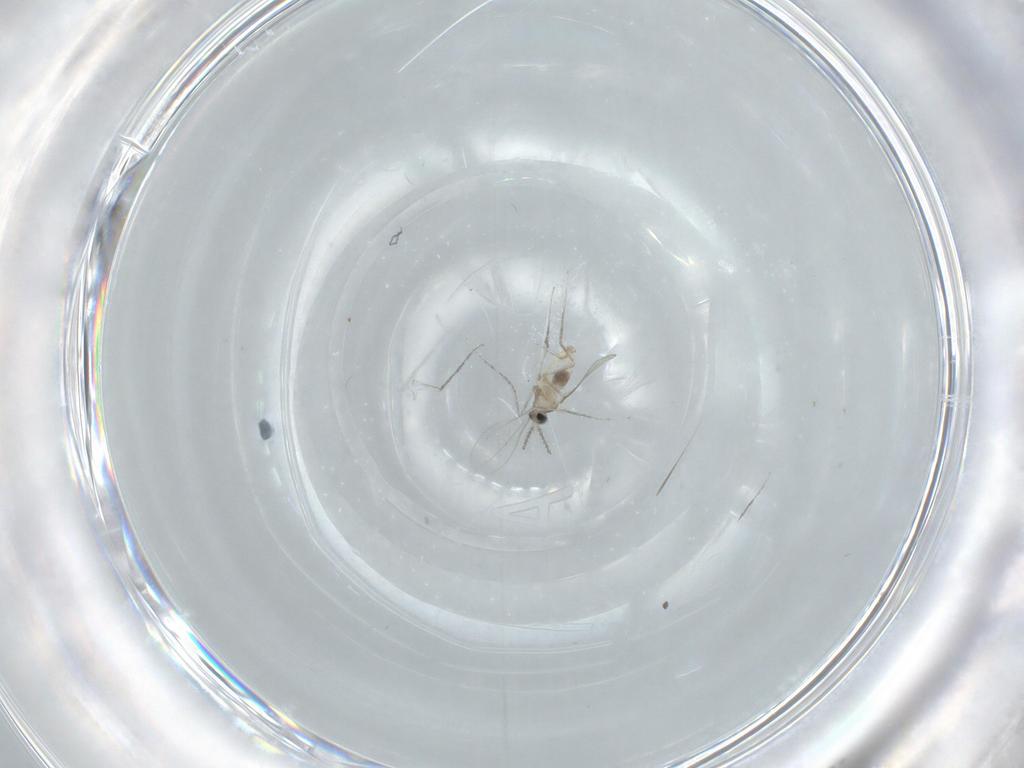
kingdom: Animalia
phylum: Arthropoda
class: Insecta
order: Diptera
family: Cecidomyiidae
